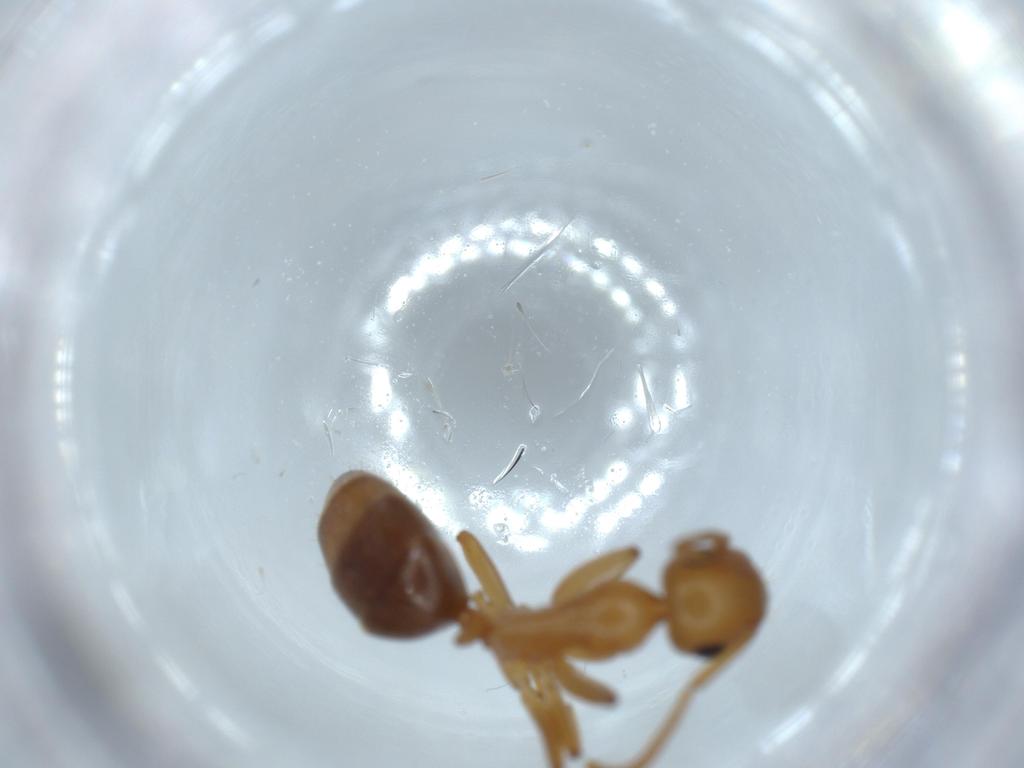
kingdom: Animalia
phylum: Arthropoda
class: Insecta
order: Hymenoptera
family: Formicidae
